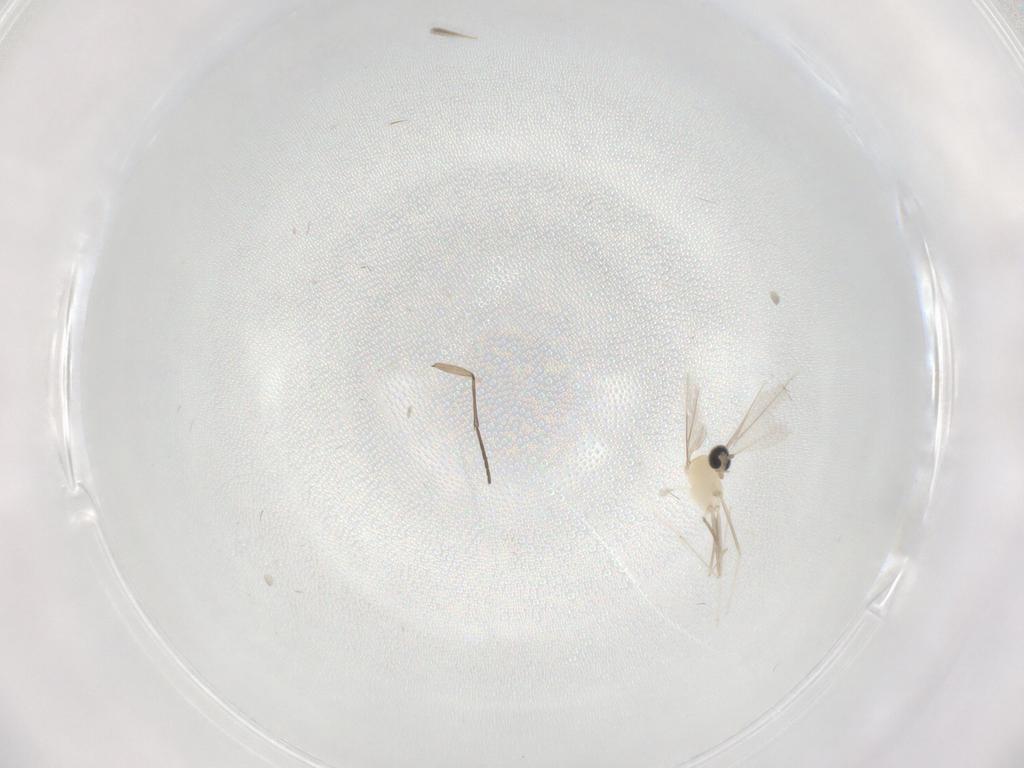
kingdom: Animalia
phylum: Arthropoda
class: Insecta
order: Diptera
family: Cecidomyiidae
